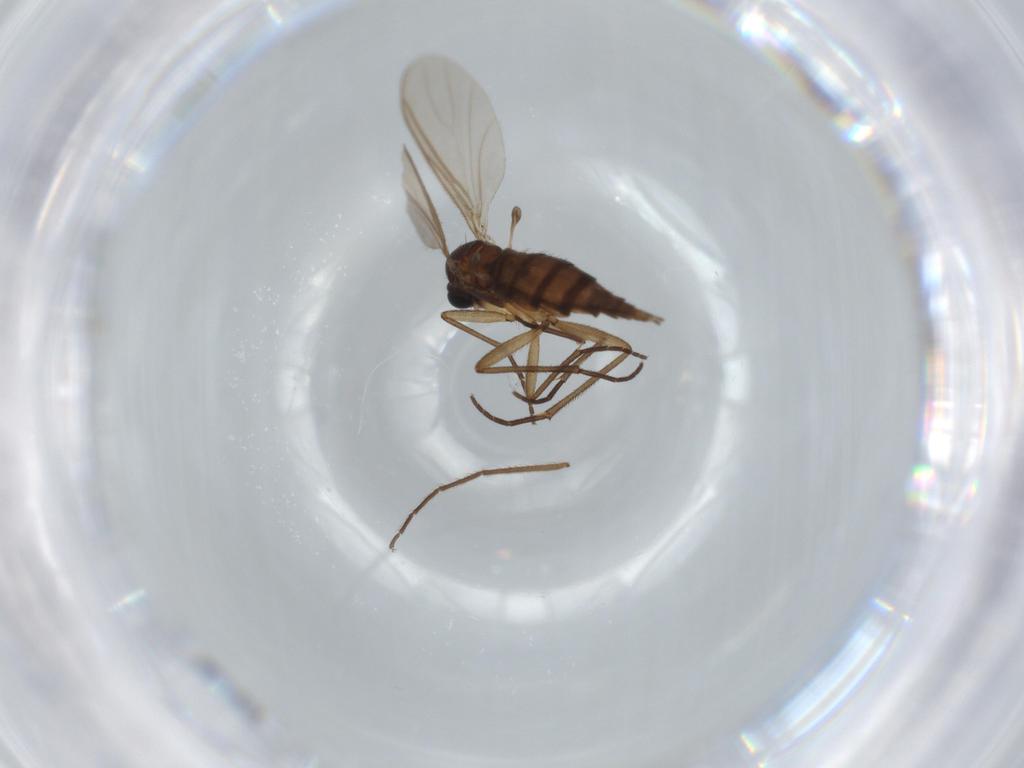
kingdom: Animalia
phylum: Arthropoda
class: Insecta
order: Diptera
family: Sciaridae
